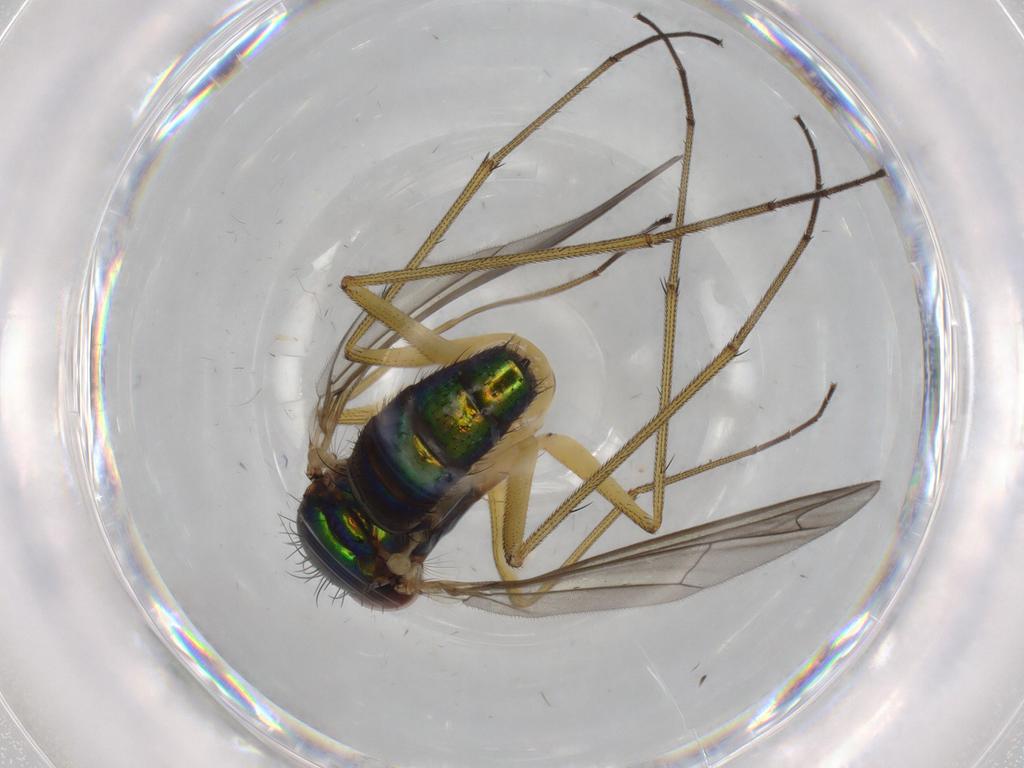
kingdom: Animalia
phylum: Arthropoda
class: Insecta
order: Diptera
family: Dolichopodidae
